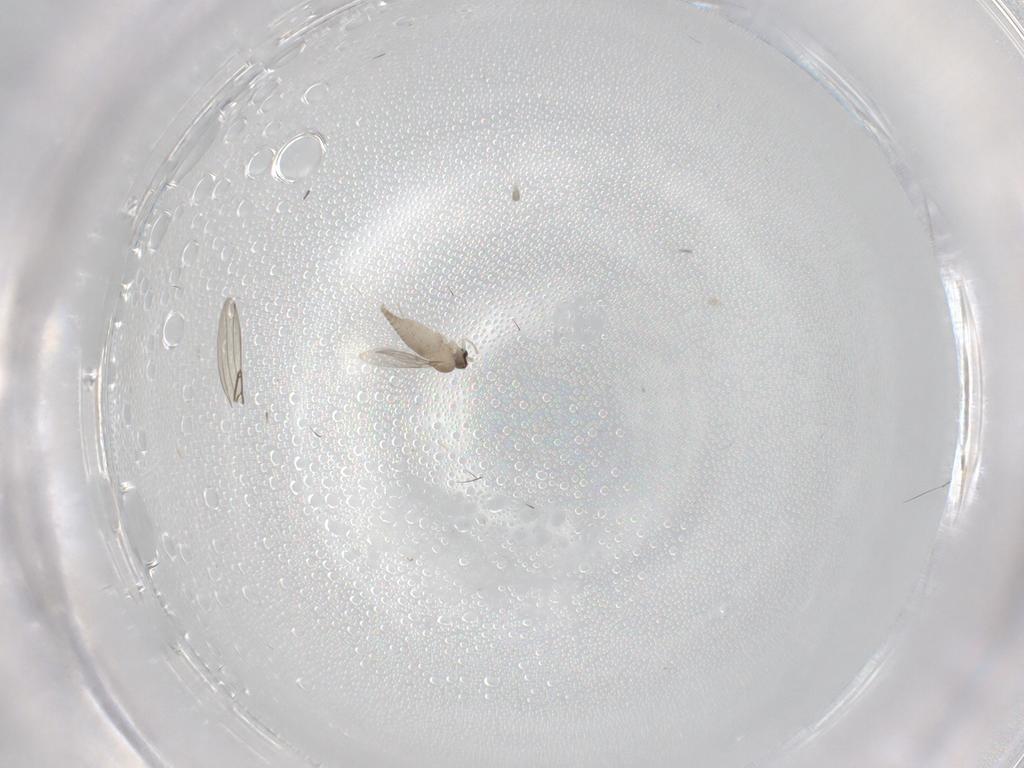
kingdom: Animalia
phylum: Arthropoda
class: Insecta
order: Diptera
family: Cecidomyiidae
